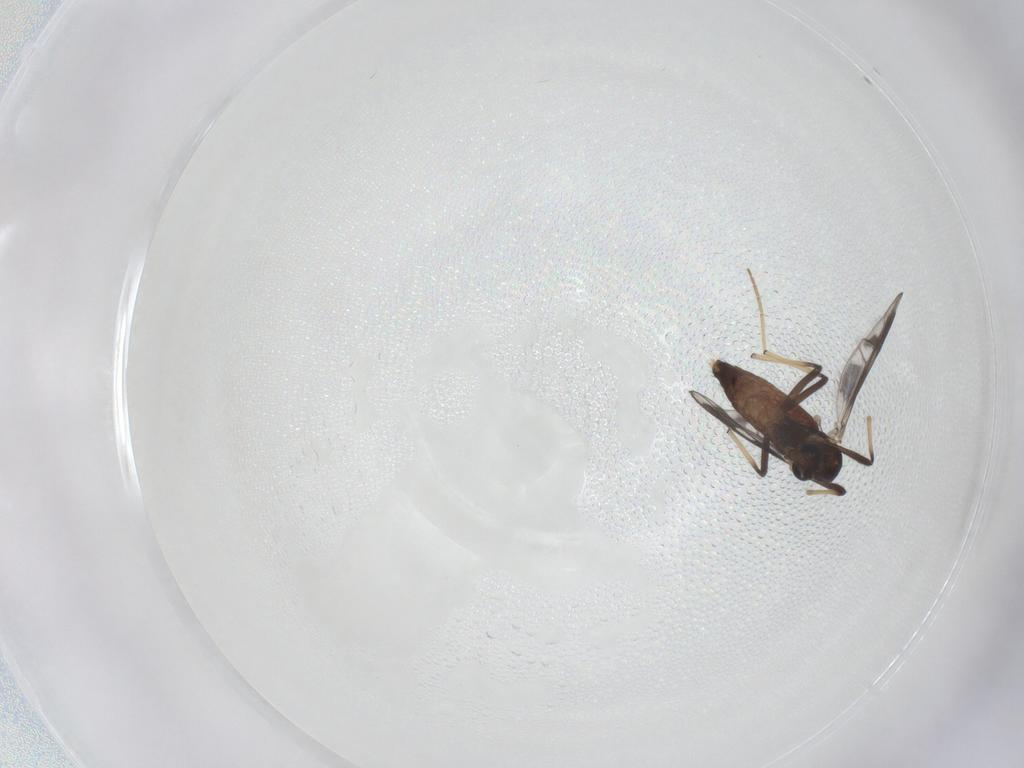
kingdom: Animalia
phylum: Arthropoda
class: Insecta
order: Diptera
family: Chironomidae
